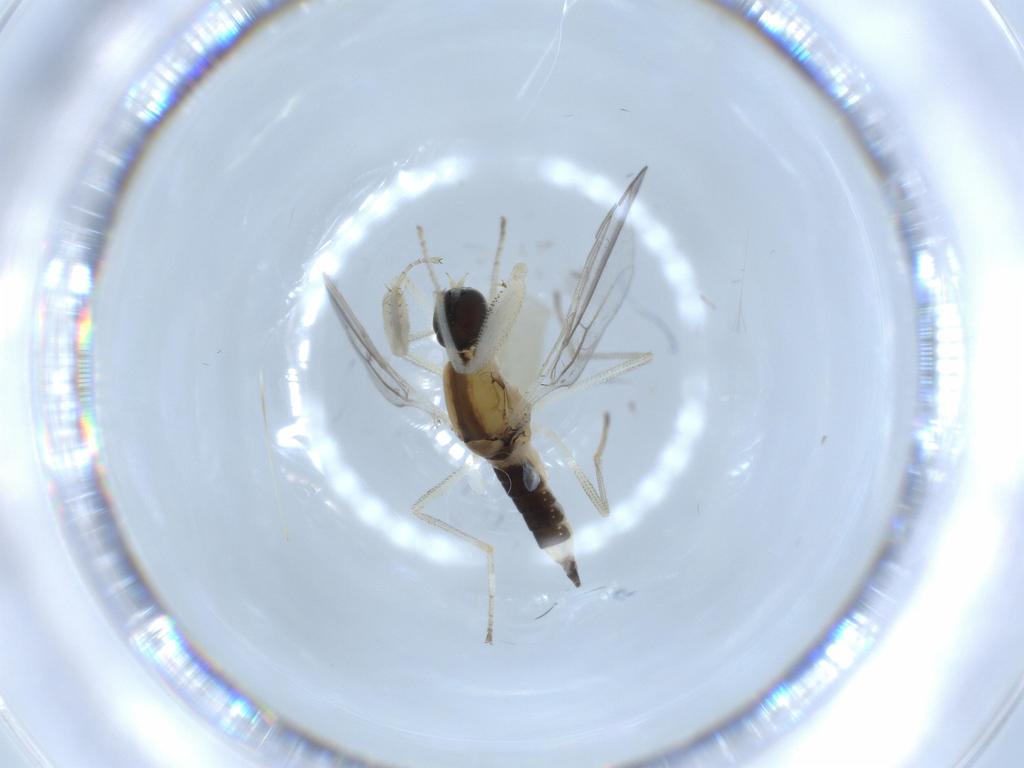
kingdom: Animalia
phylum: Arthropoda
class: Insecta
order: Diptera
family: Empididae
